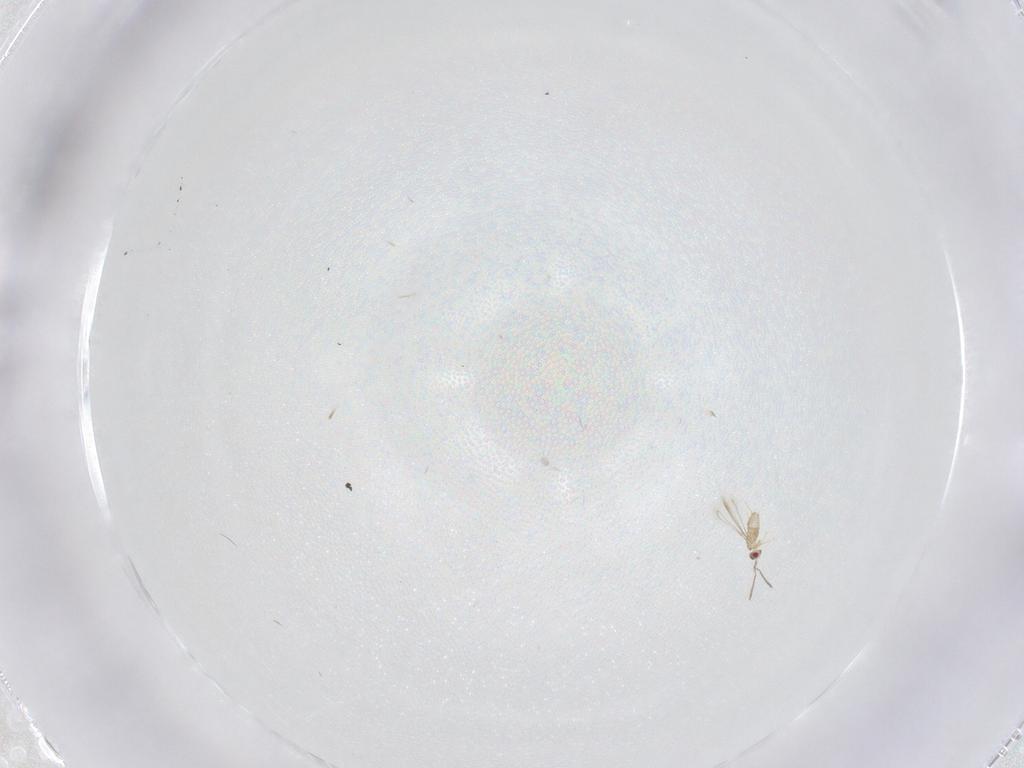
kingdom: Animalia
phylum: Arthropoda
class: Insecta
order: Hymenoptera
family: Mymaridae
